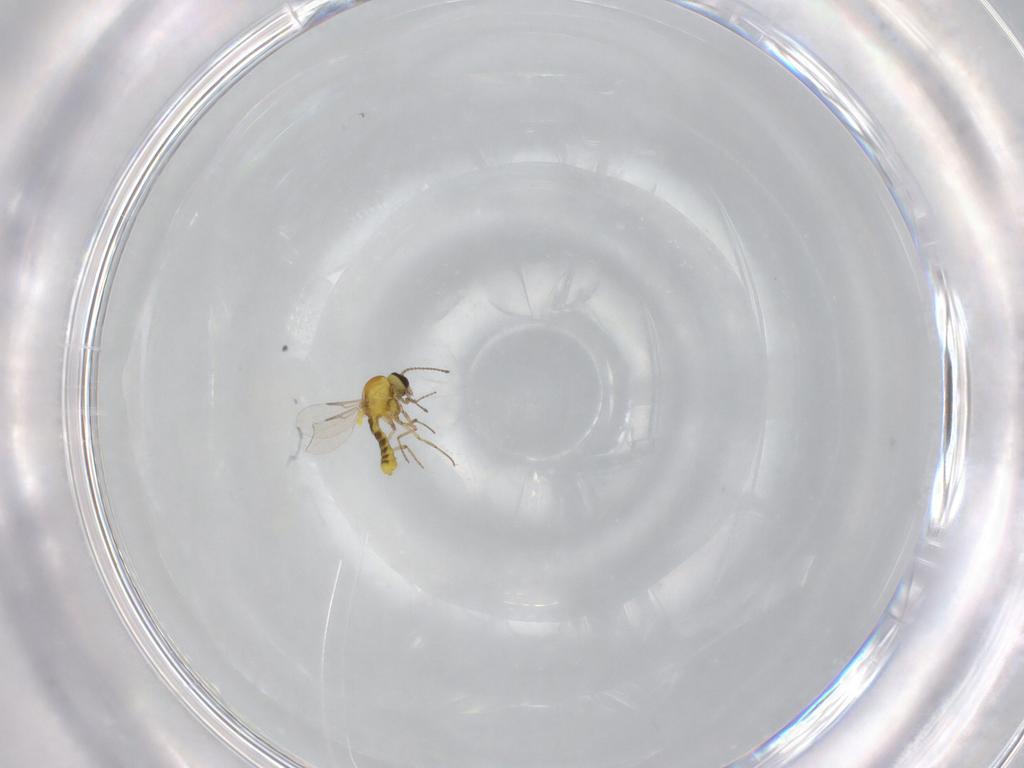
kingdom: Animalia
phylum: Arthropoda
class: Insecta
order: Diptera
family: Ceratopogonidae
